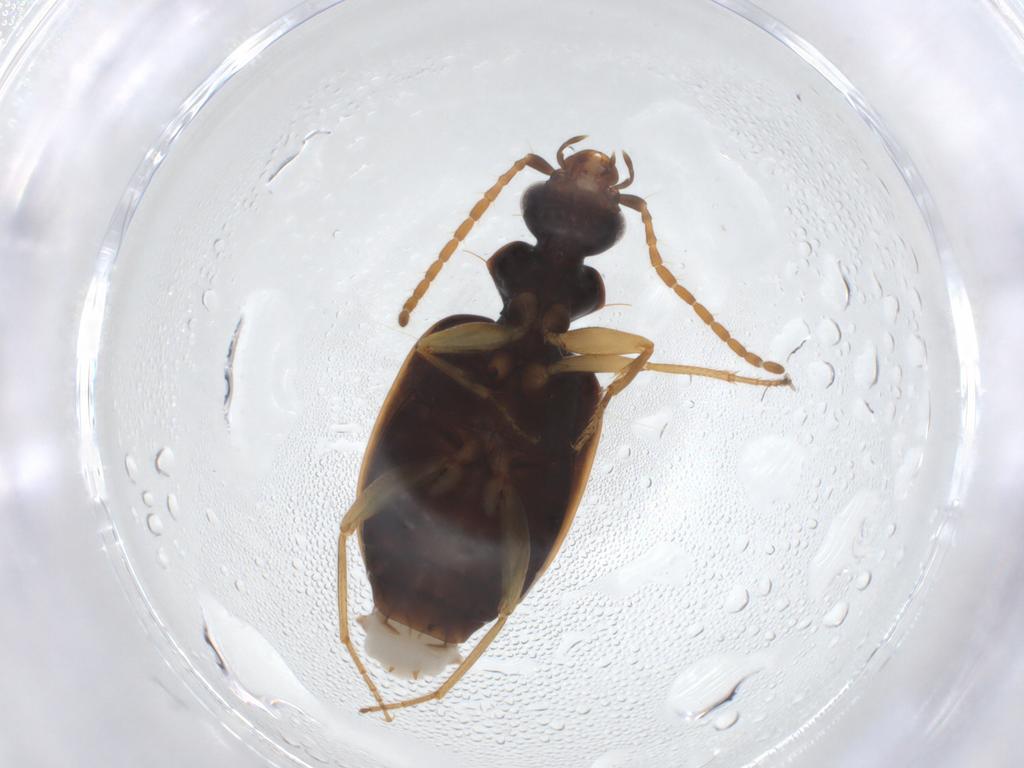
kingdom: Animalia
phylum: Arthropoda
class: Insecta
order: Coleoptera
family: Carabidae
